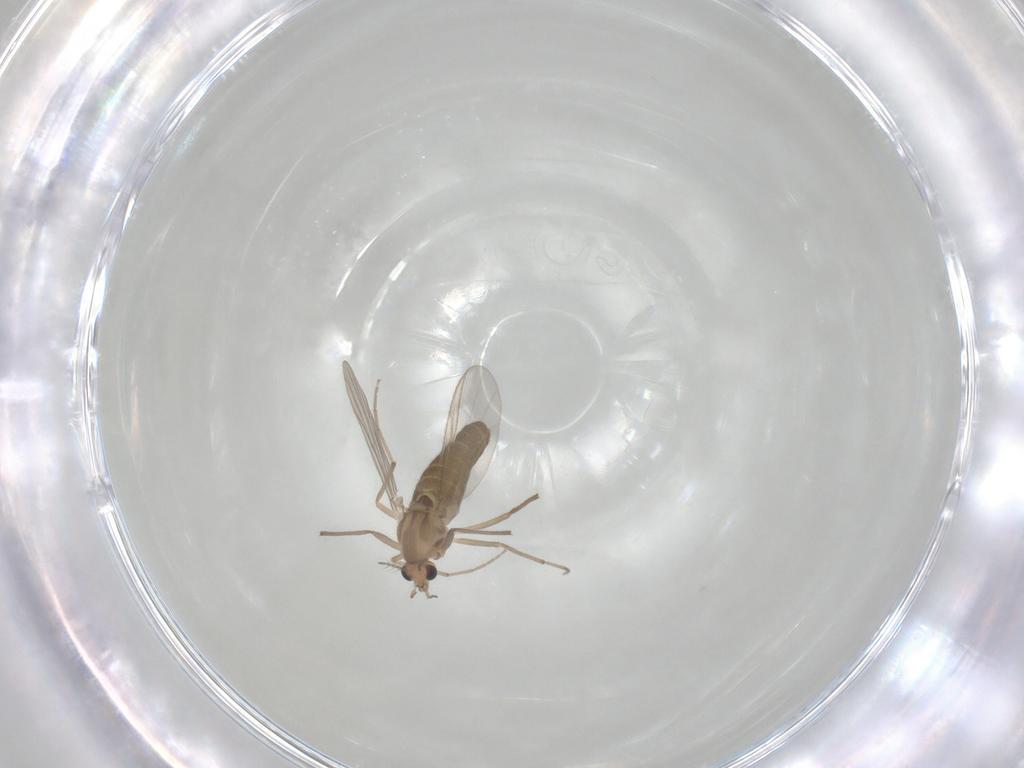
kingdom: Animalia
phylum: Arthropoda
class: Insecta
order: Diptera
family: Chironomidae
